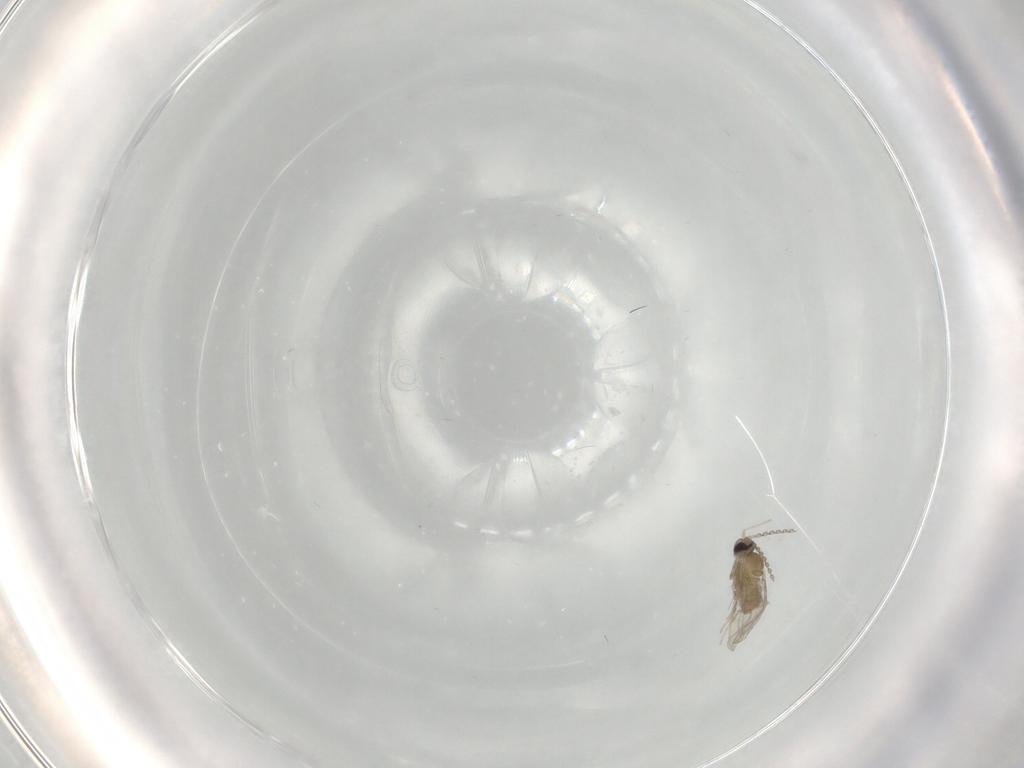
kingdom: Animalia
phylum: Arthropoda
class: Insecta
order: Diptera
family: Cecidomyiidae
